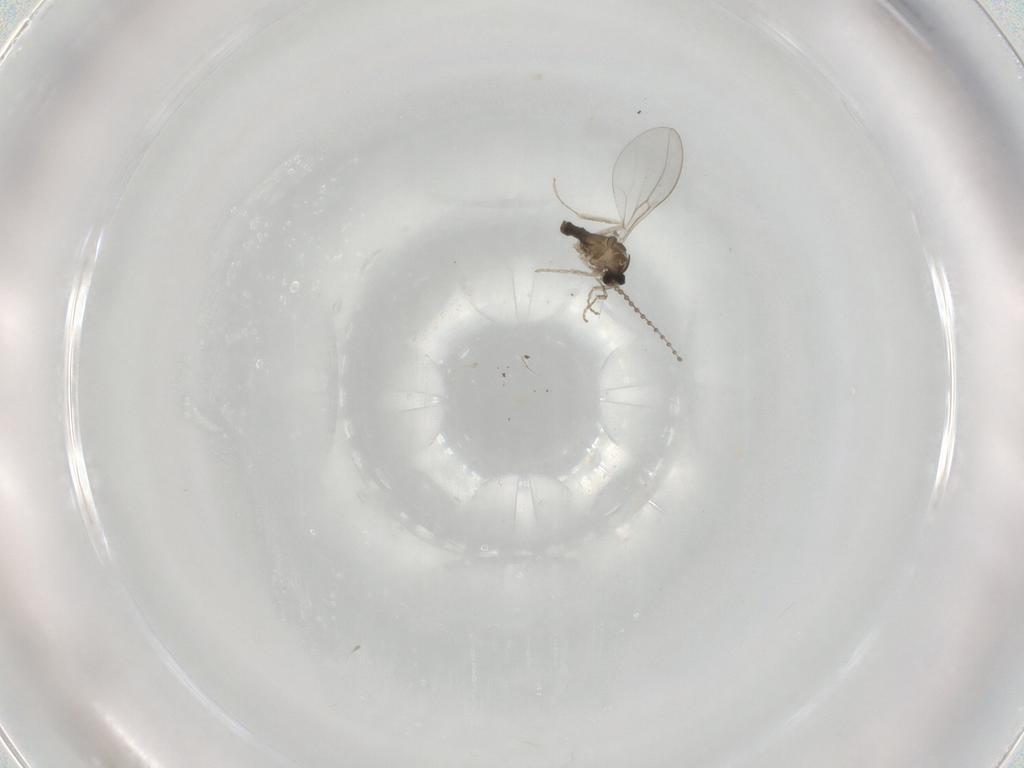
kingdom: Animalia
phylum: Arthropoda
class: Insecta
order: Diptera
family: Cecidomyiidae
